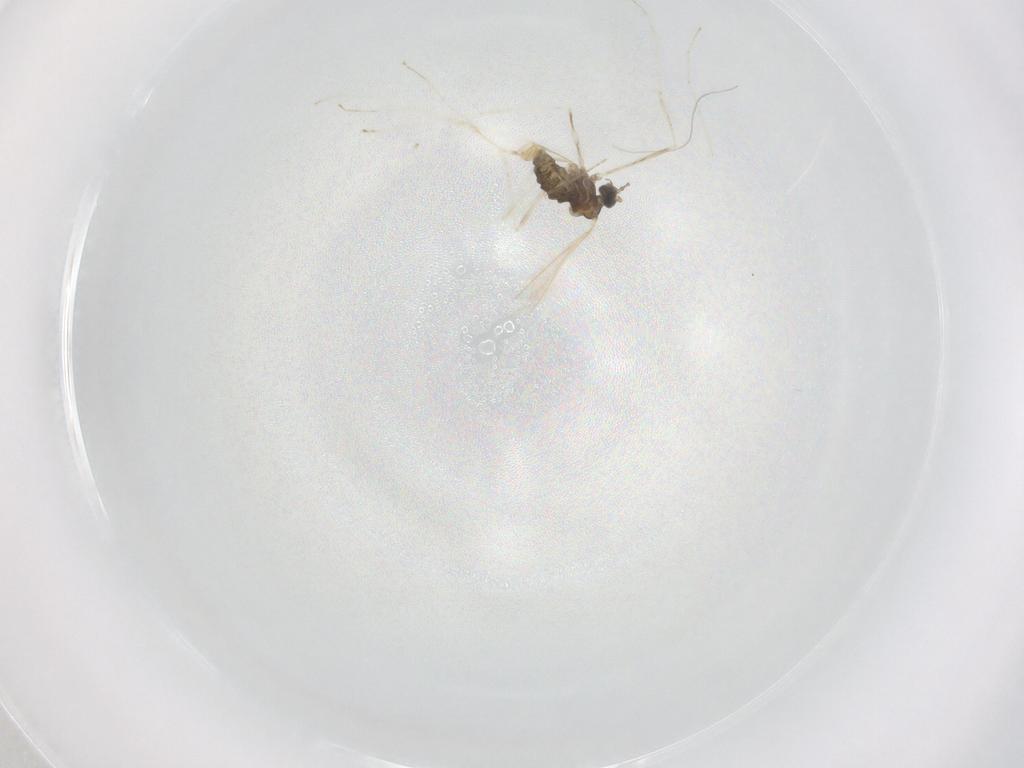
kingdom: Animalia
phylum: Arthropoda
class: Insecta
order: Diptera
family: Cecidomyiidae
